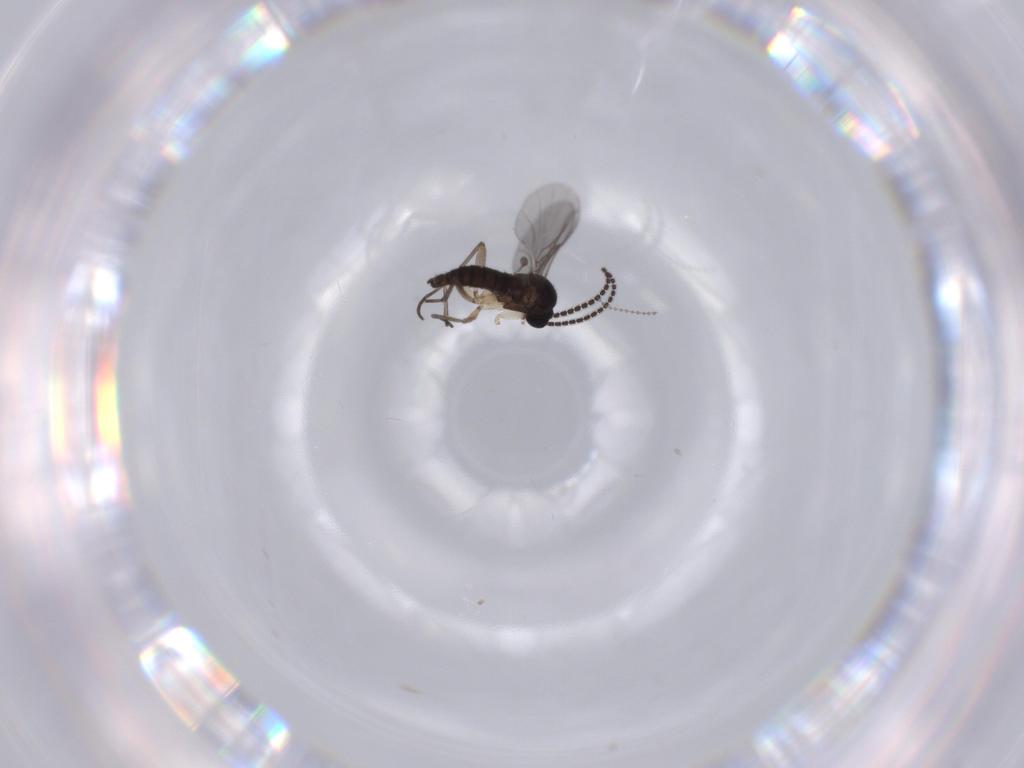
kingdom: Animalia
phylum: Arthropoda
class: Insecta
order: Diptera
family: Sciaridae
